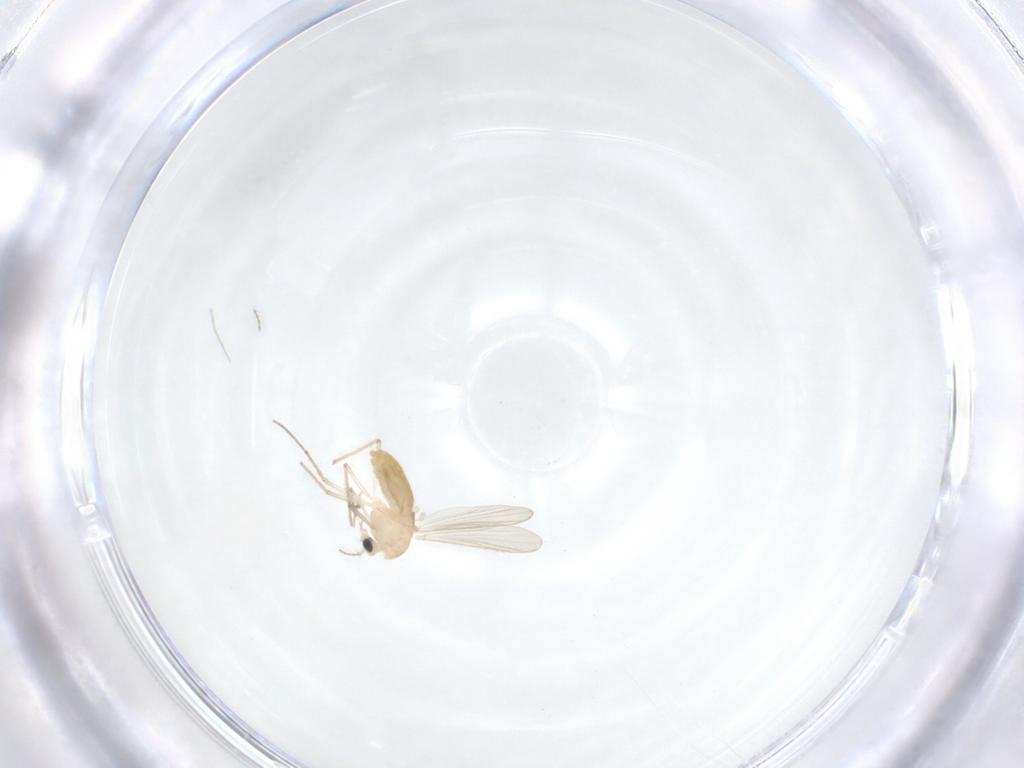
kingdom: Animalia
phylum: Arthropoda
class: Insecta
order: Diptera
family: Chironomidae
